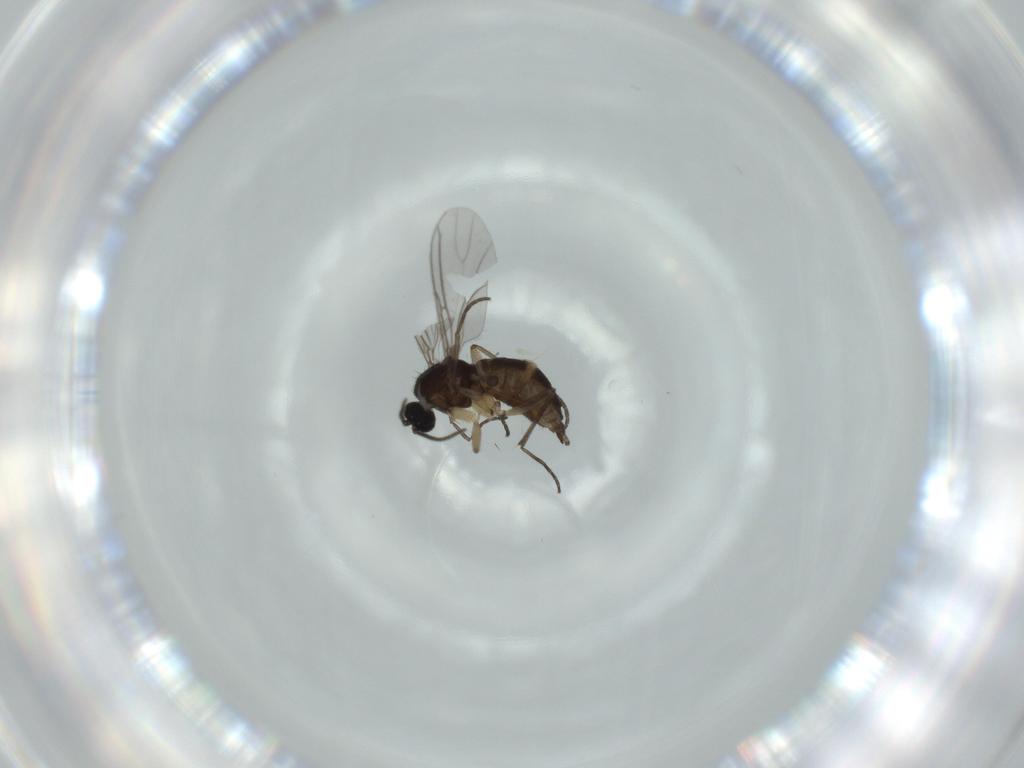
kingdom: Animalia
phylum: Arthropoda
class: Insecta
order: Diptera
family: Sciaridae
